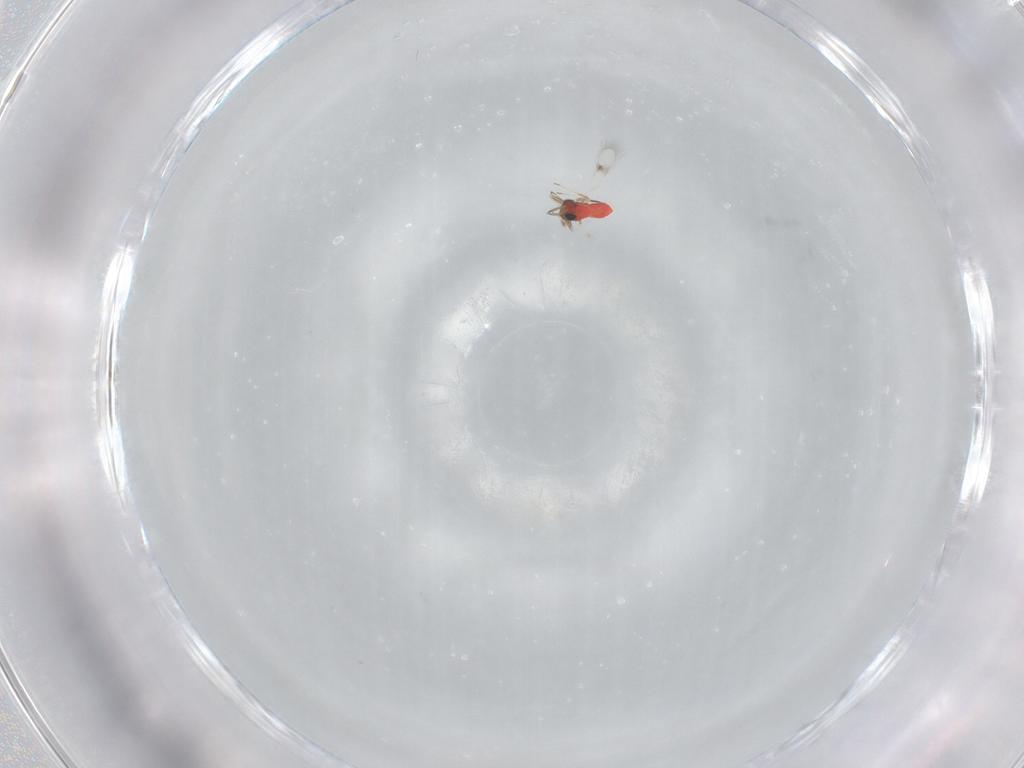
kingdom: Animalia
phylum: Arthropoda
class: Insecta
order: Hymenoptera
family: Trichogrammatidae
